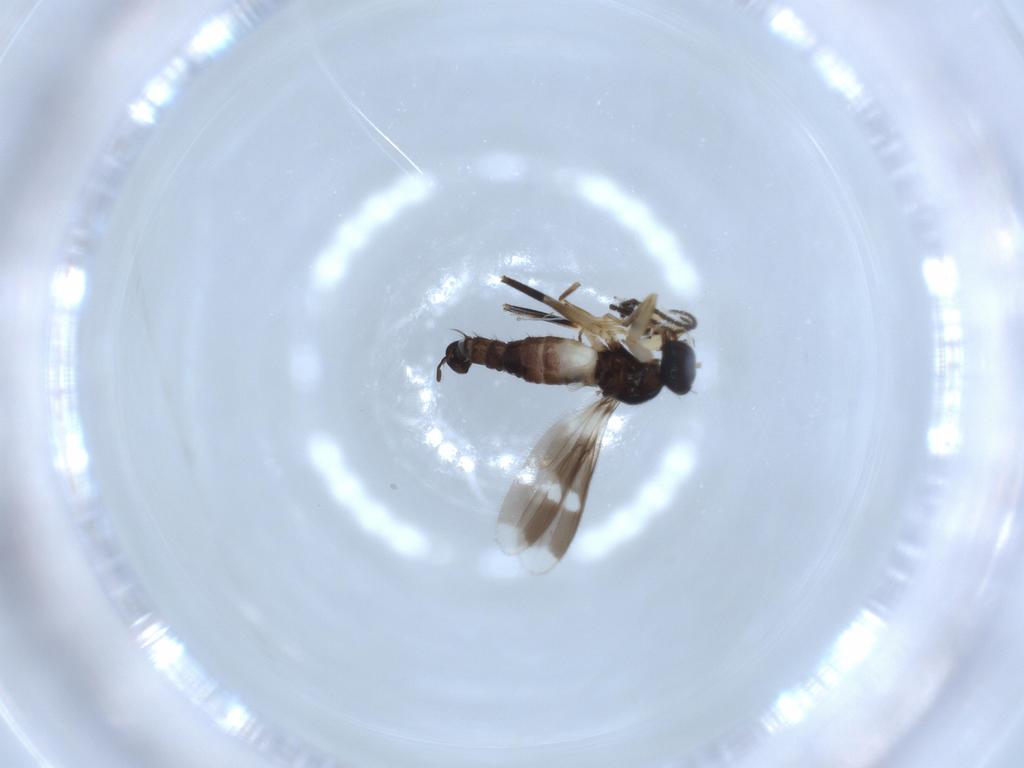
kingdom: Animalia
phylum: Arthropoda
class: Insecta
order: Diptera
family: Hybotidae
